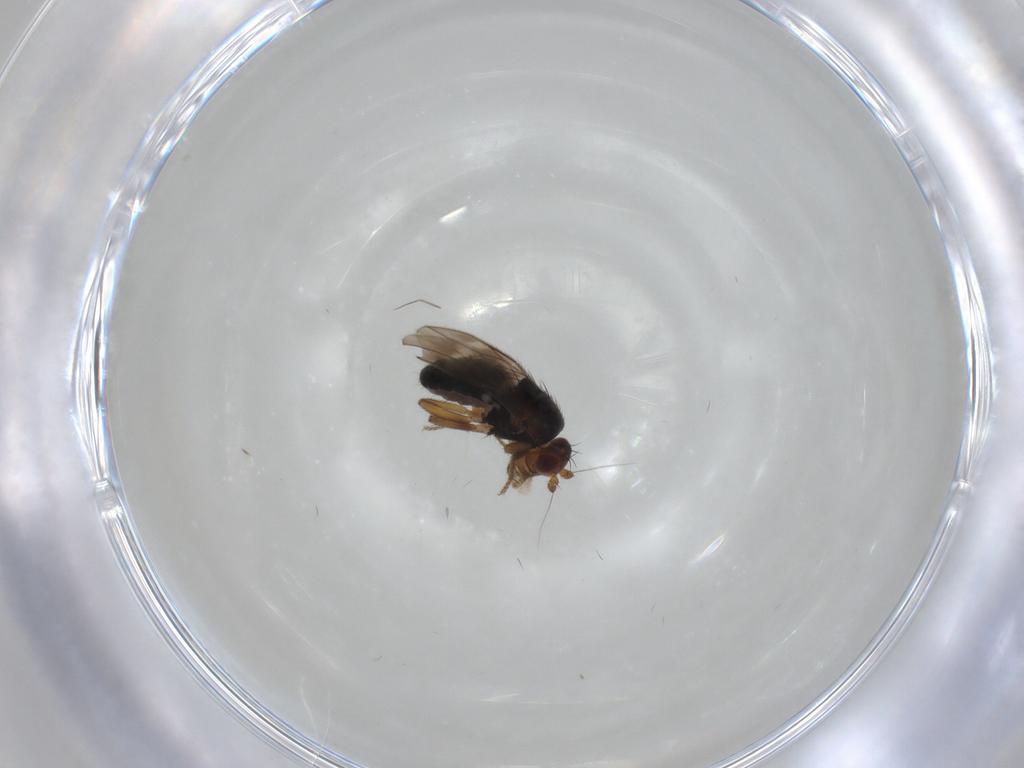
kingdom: Animalia
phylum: Arthropoda
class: Insecta
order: Diptera
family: Sphaeroceridae
